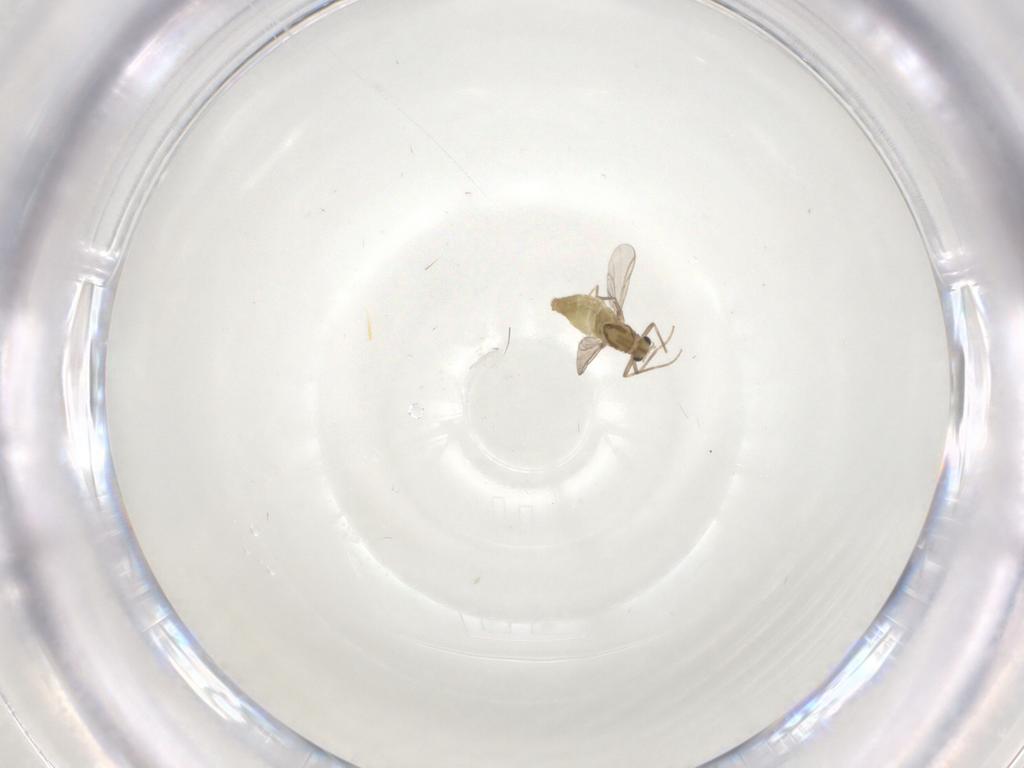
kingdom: Animalia
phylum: Arthropoda
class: Insecta
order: Diptera
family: Chironomidae
